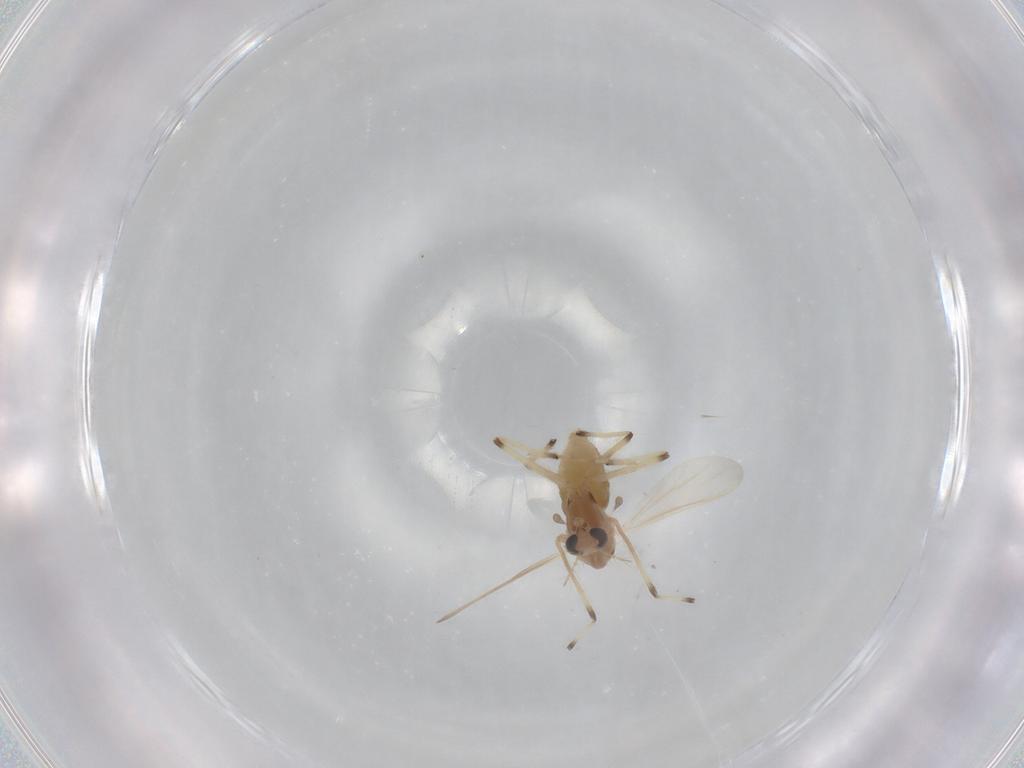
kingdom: Animalia
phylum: Arthropoda
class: Insecta
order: Diptera
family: Chironomidae
